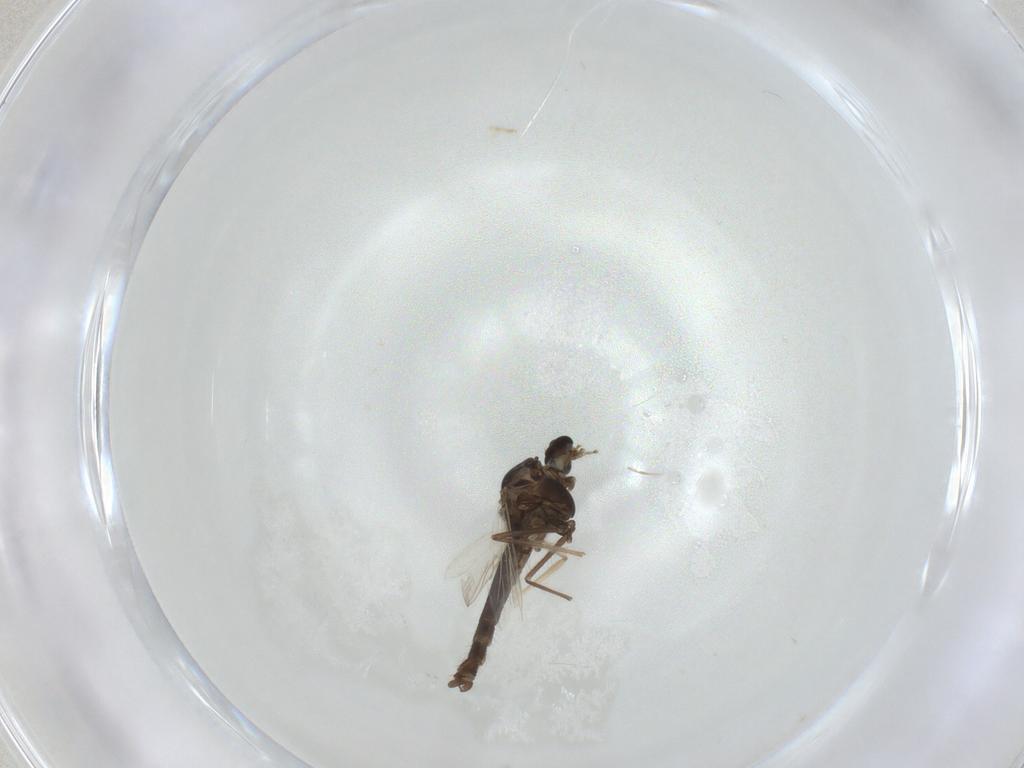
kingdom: Animalia
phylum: Arthropoda
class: Insecta
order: Diptera
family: Chironomidae
